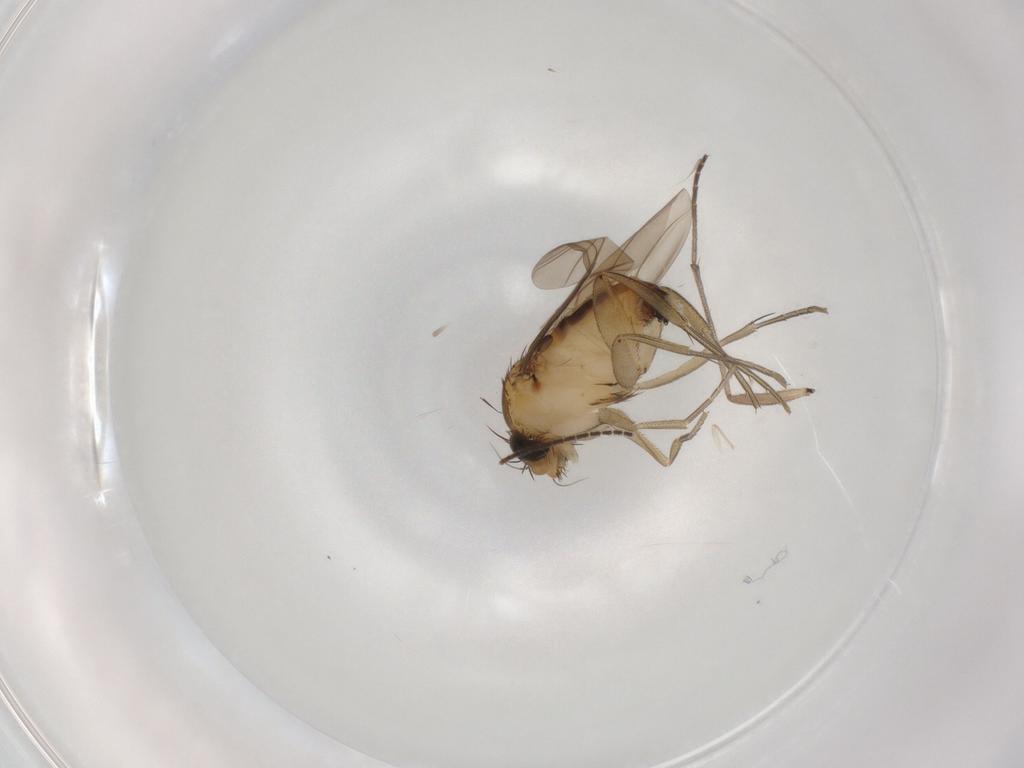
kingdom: Animalia
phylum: Arthropoda
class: Insecta
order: Diptera
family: Phoridae
